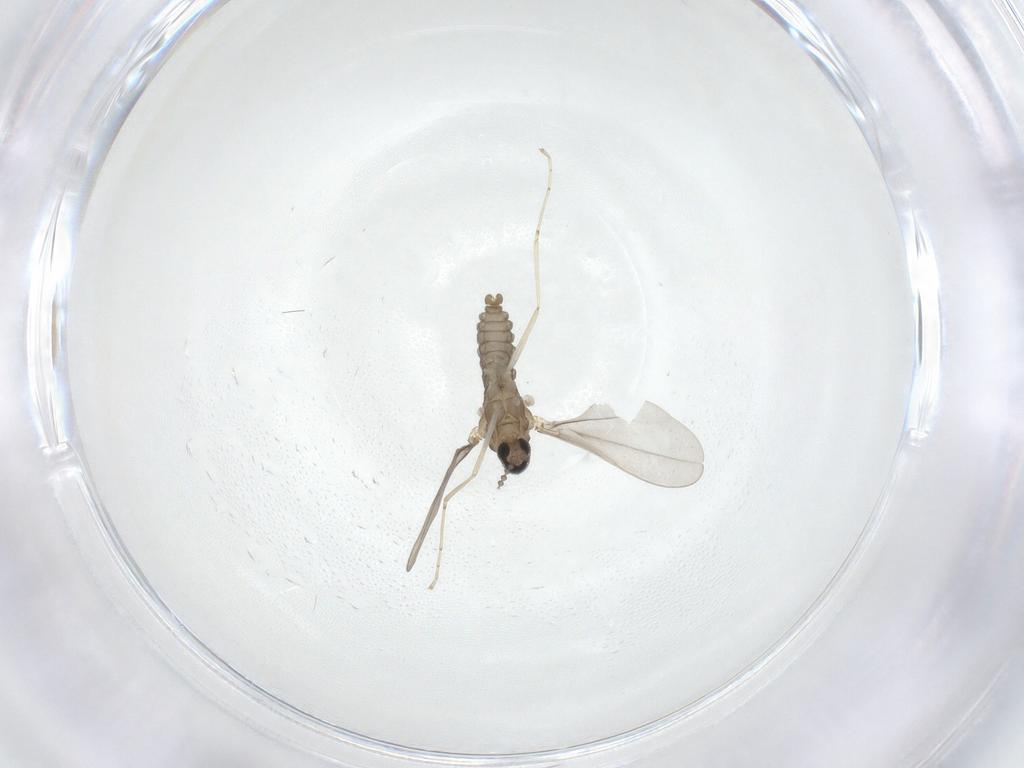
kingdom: Animalia
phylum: Arthropoda
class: Insecta
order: Diptera
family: Cecidomyiidae
